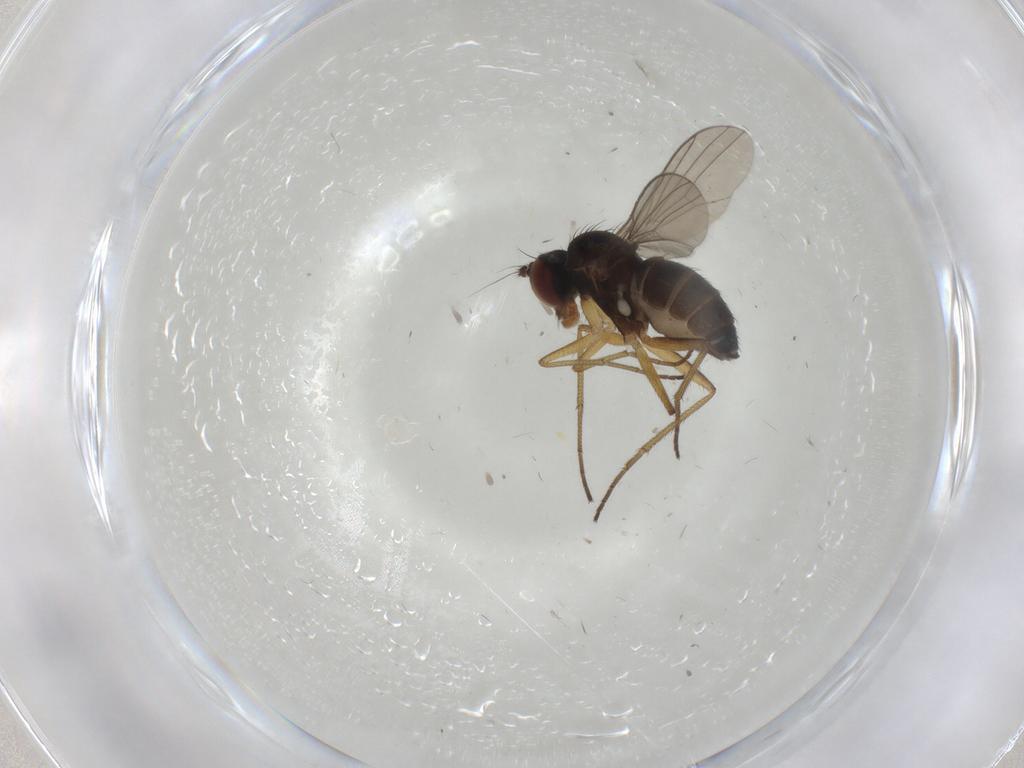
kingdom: Animalia
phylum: Arthropoda
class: Insecta
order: Diptera
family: Dolichopodidae
